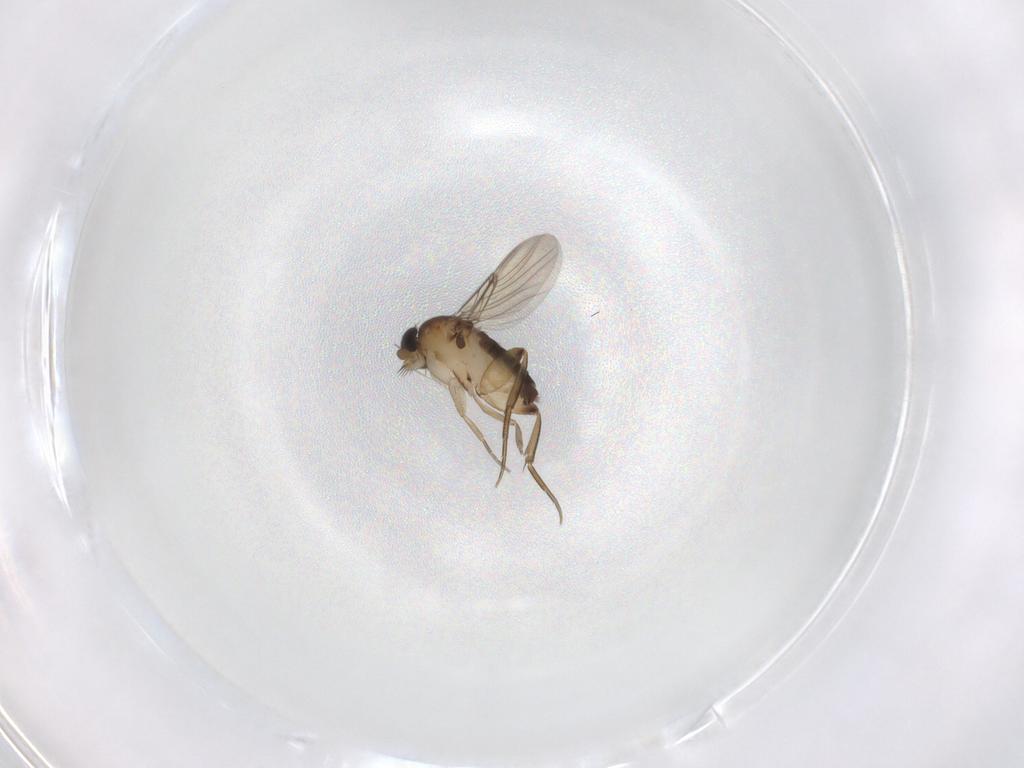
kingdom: Animalia
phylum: Arthropoda
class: Insecta
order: Diptera
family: Phoridae
